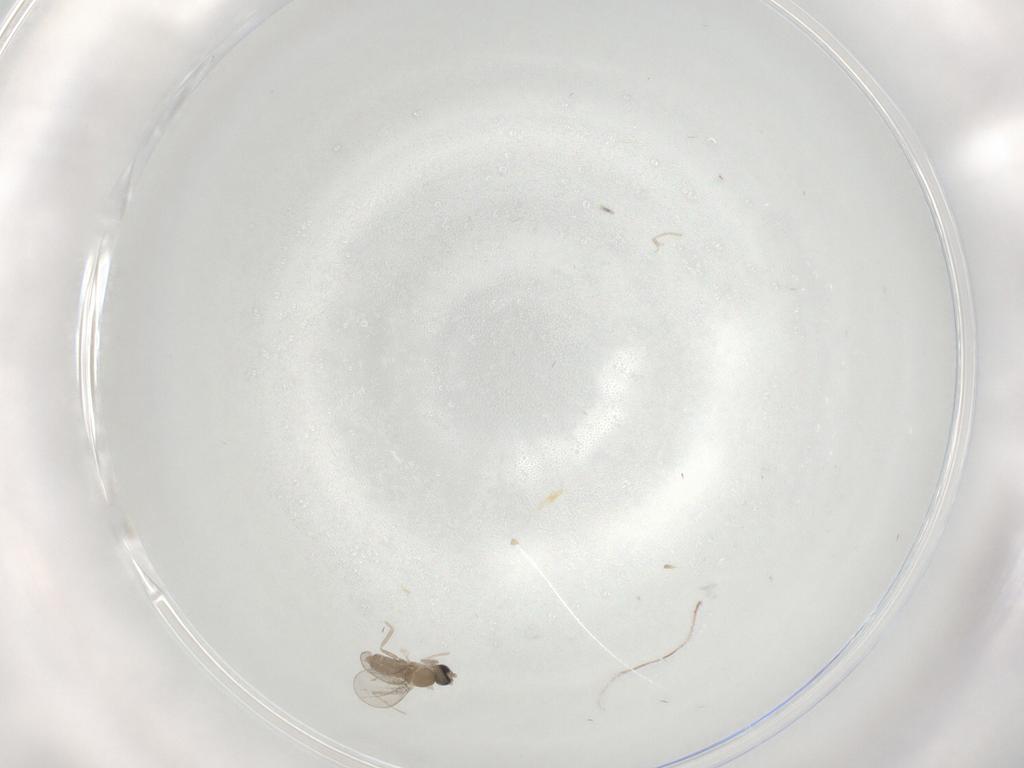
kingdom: Animalia
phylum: Arthropoda
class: Insecta
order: Diptera
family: Cecidomyiidae
